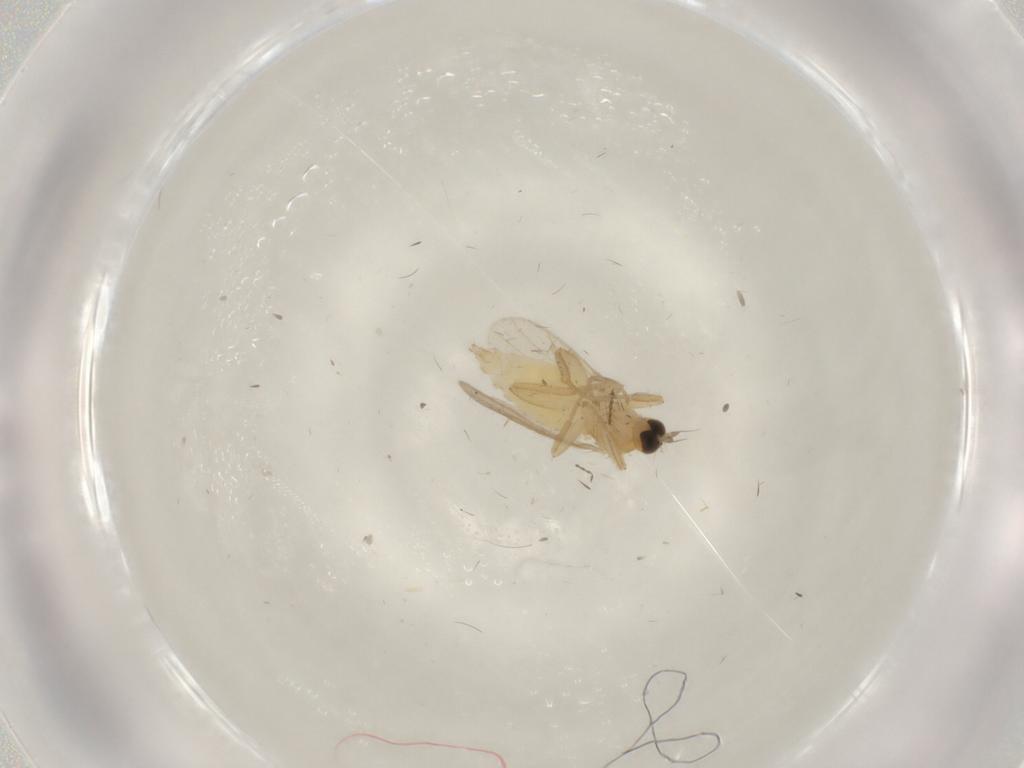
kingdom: Animalia
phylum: Arthropoda
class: Insecta
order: Diptera
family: Hybotidae
